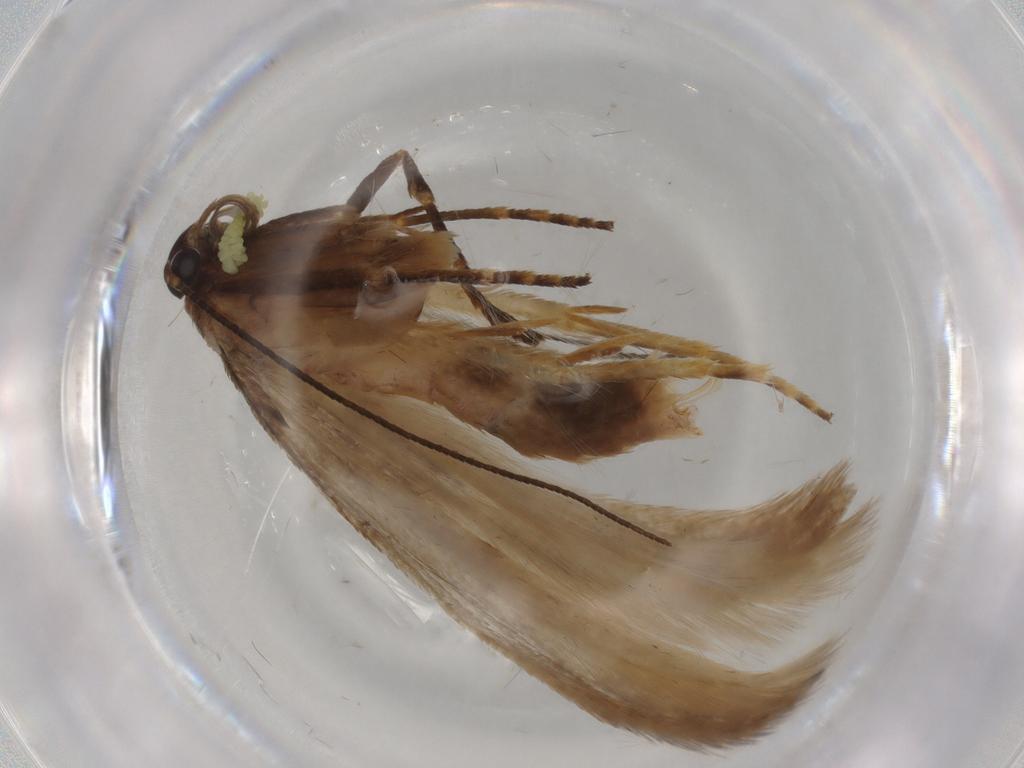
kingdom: Animalia
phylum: Arthropoda
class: Insecta
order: Lepidoptera
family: Gelechiidae
